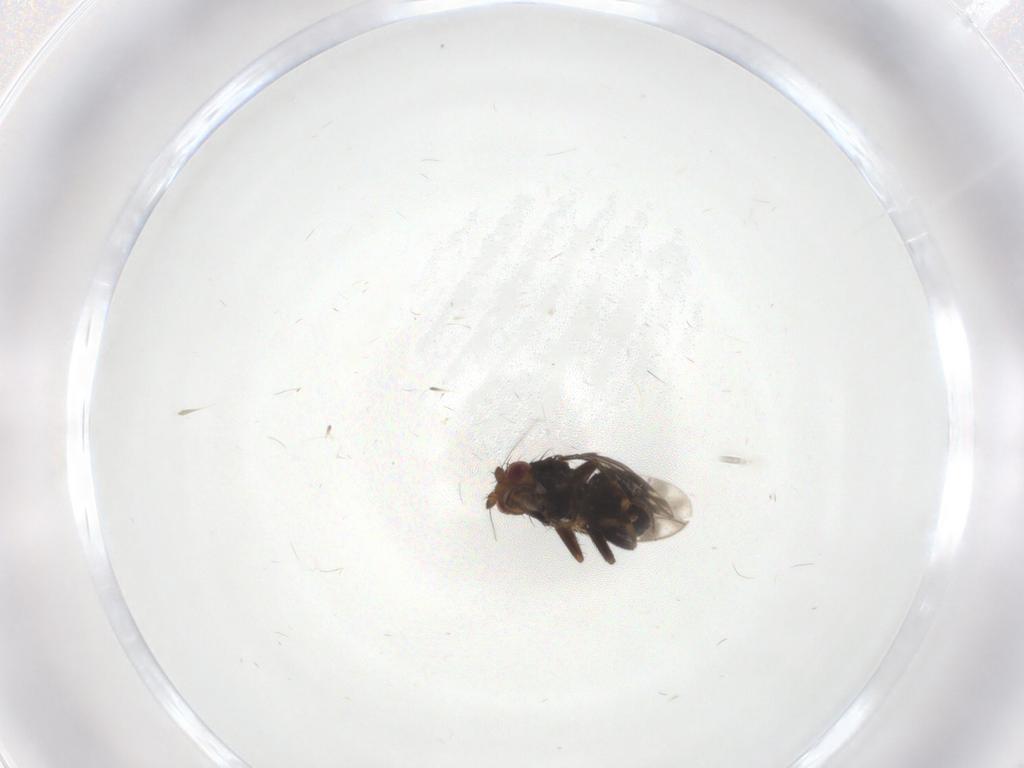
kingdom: Animalia
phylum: Arthropoda
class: Insecta
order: Diptera
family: Sphaeroceridae
